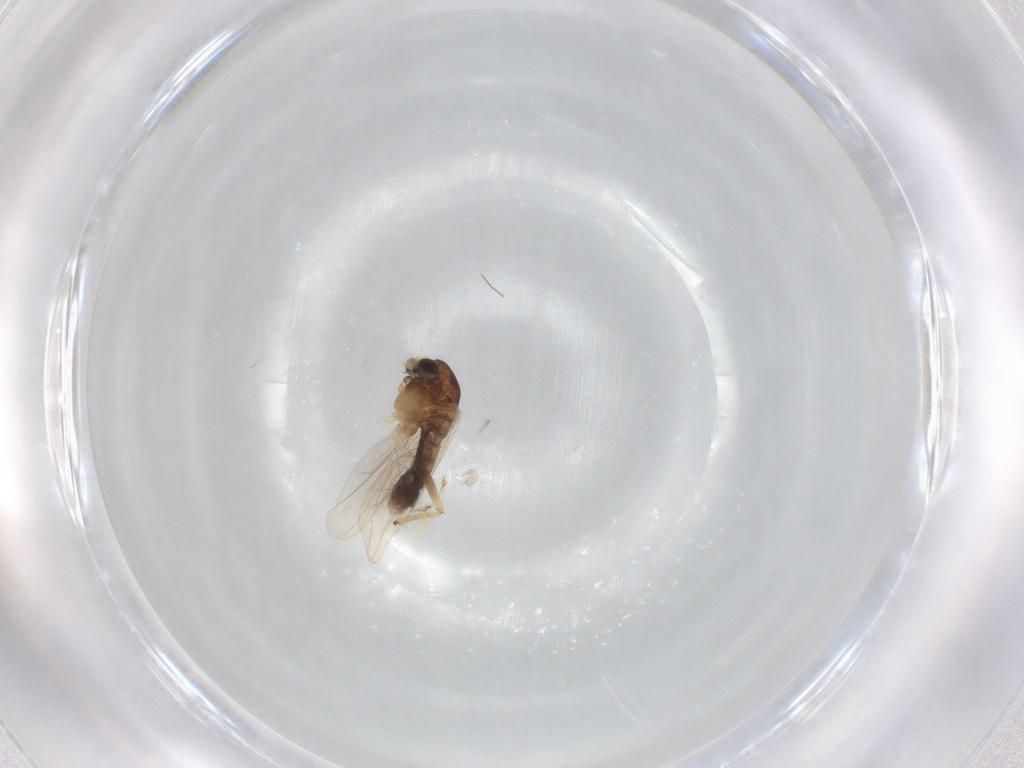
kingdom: Animalia
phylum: Arthropoda
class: Insecta
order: Diptera
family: Chironomidae
